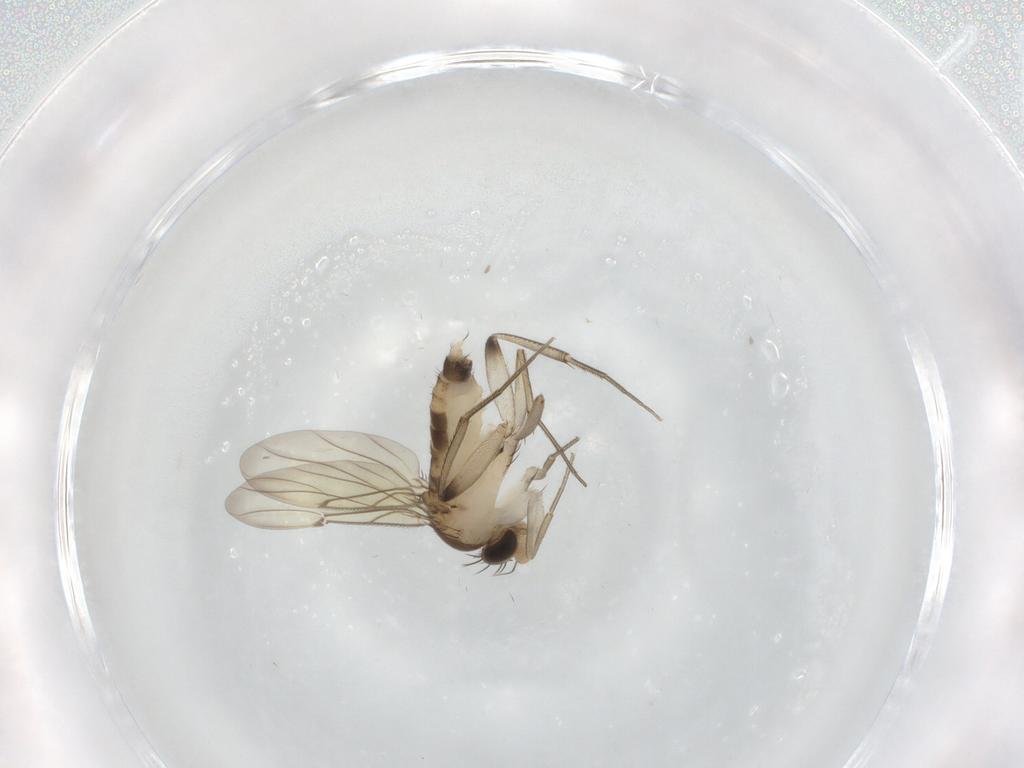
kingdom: Animalia
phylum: Arthropoda
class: Insecta
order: Diptera
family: Phoridae
